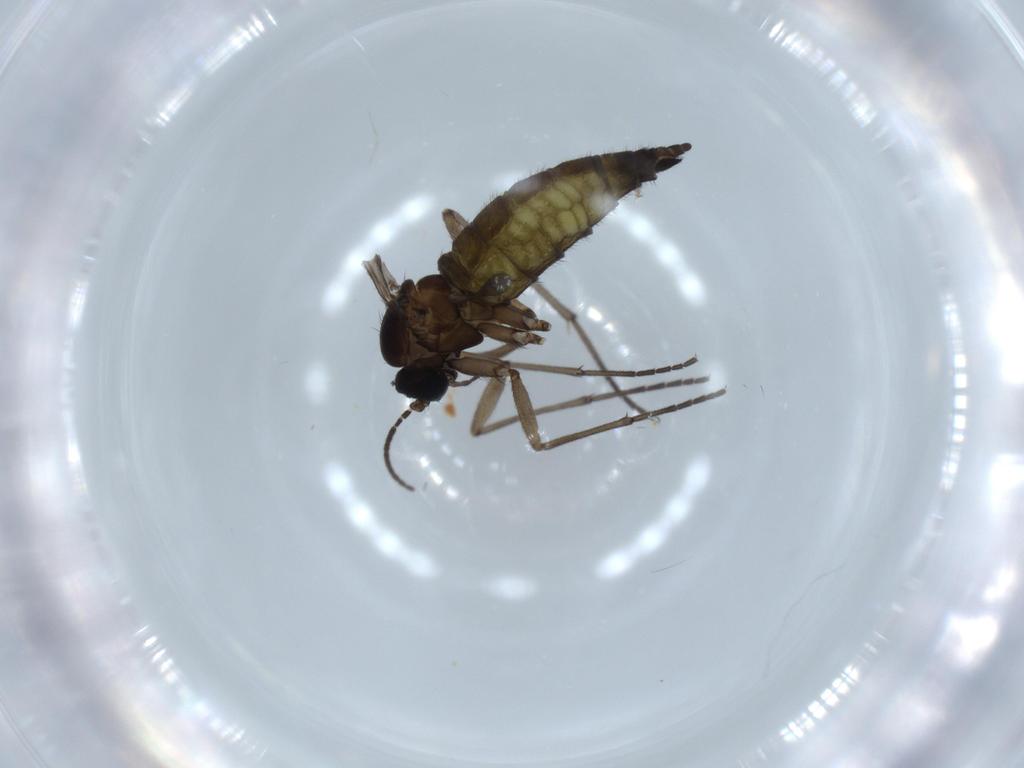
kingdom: Animalia
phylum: Arthropoda
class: Insecta
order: Diptera
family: Sciaridae
